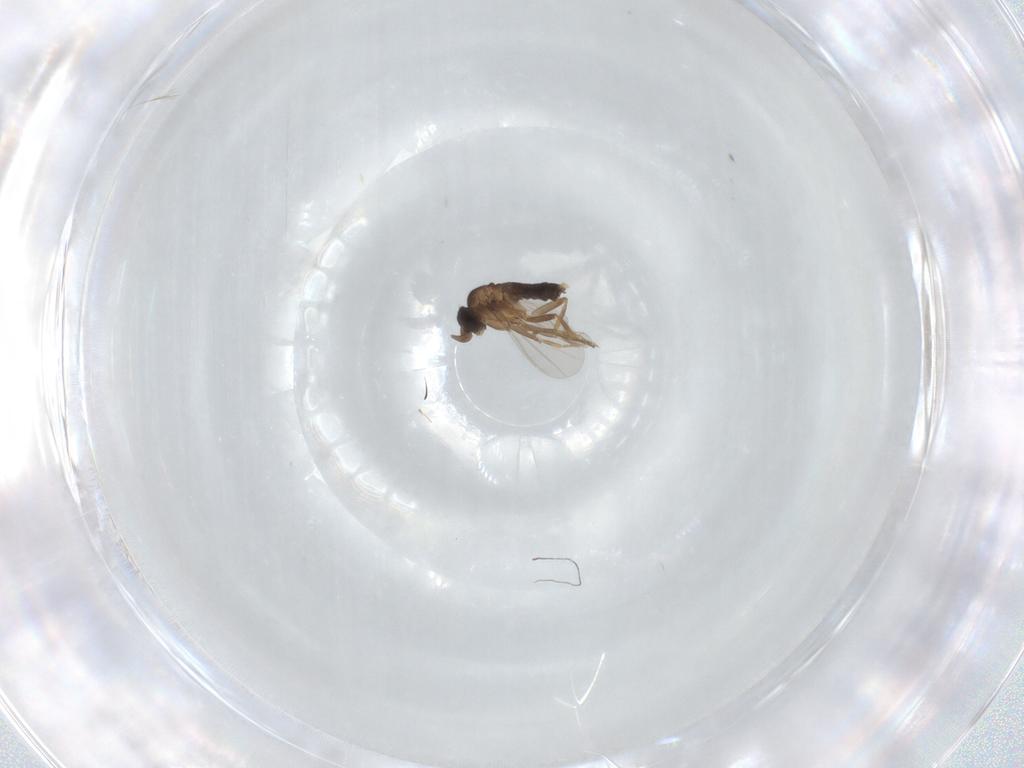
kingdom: Animalia
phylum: Arthropoda
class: Insecta
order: Diptera
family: Phoridae
